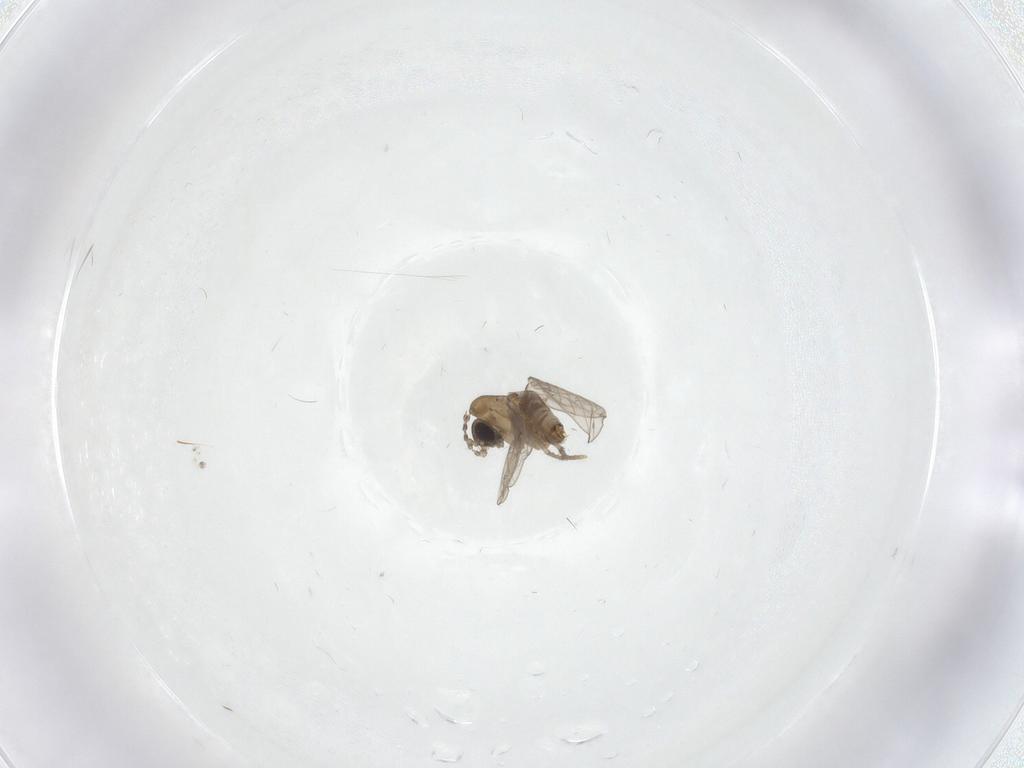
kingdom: Animalia
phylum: Arthropoda
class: Insecta
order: Diptera
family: Psychodidae
